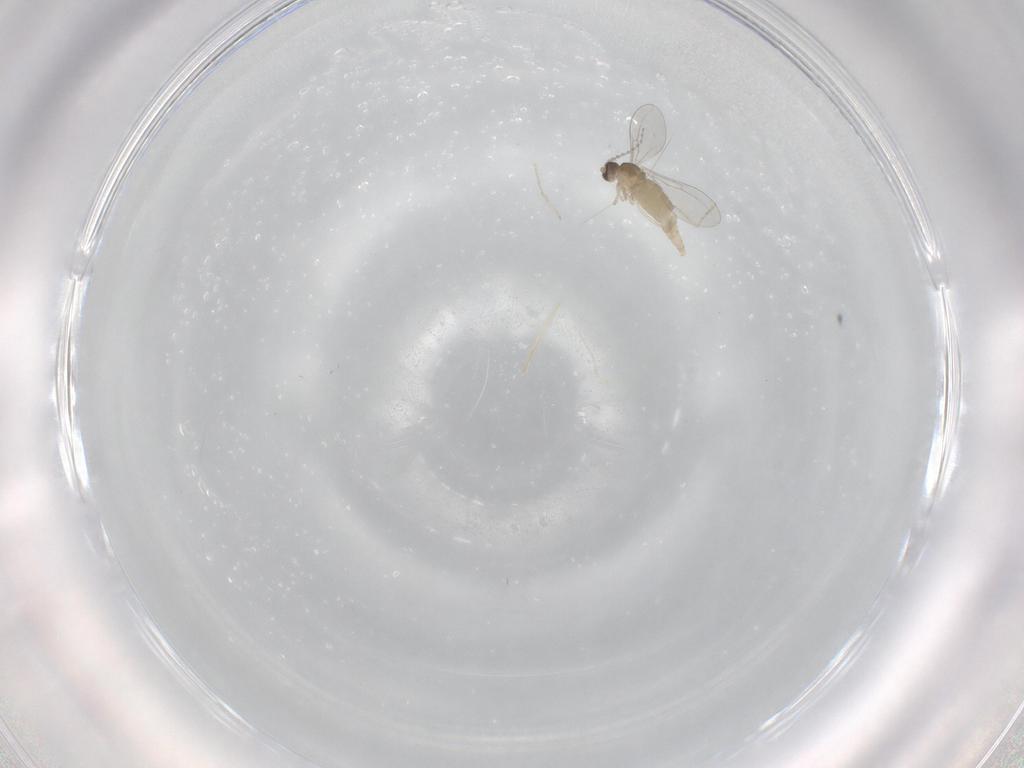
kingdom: Animalia
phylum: Arthropoda
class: Insecta
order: Diptera
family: Cecidomyiidae
